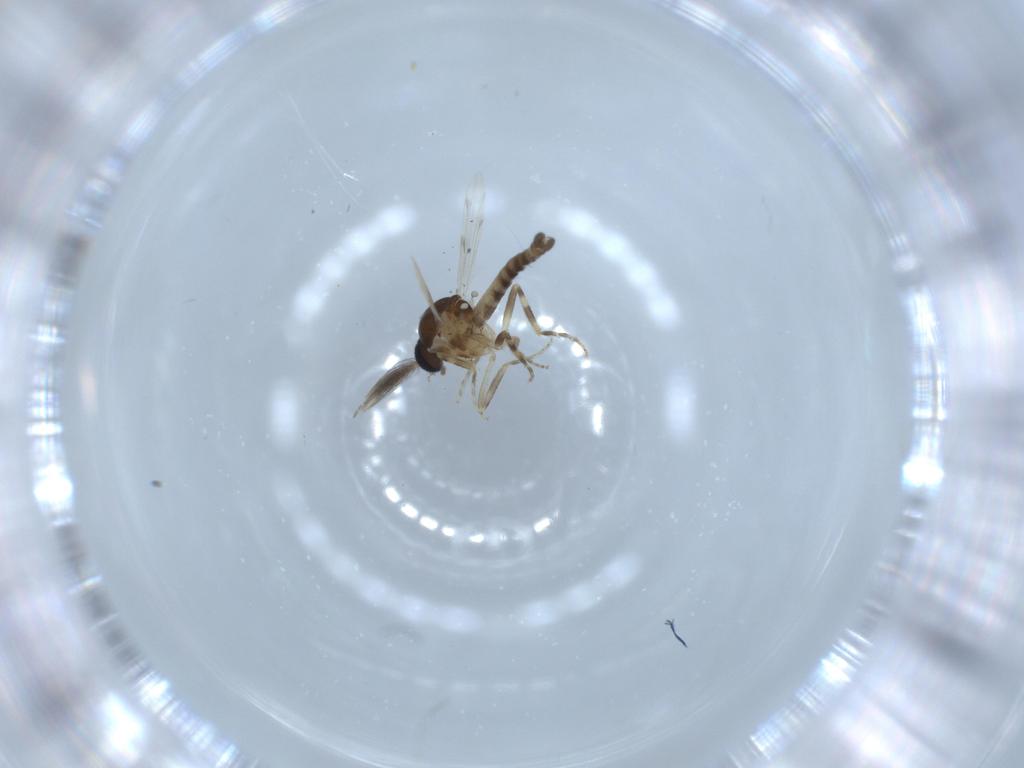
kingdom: Animalia
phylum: Arthropoda
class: Insecta
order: Diptera
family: Ceratopogonidae
